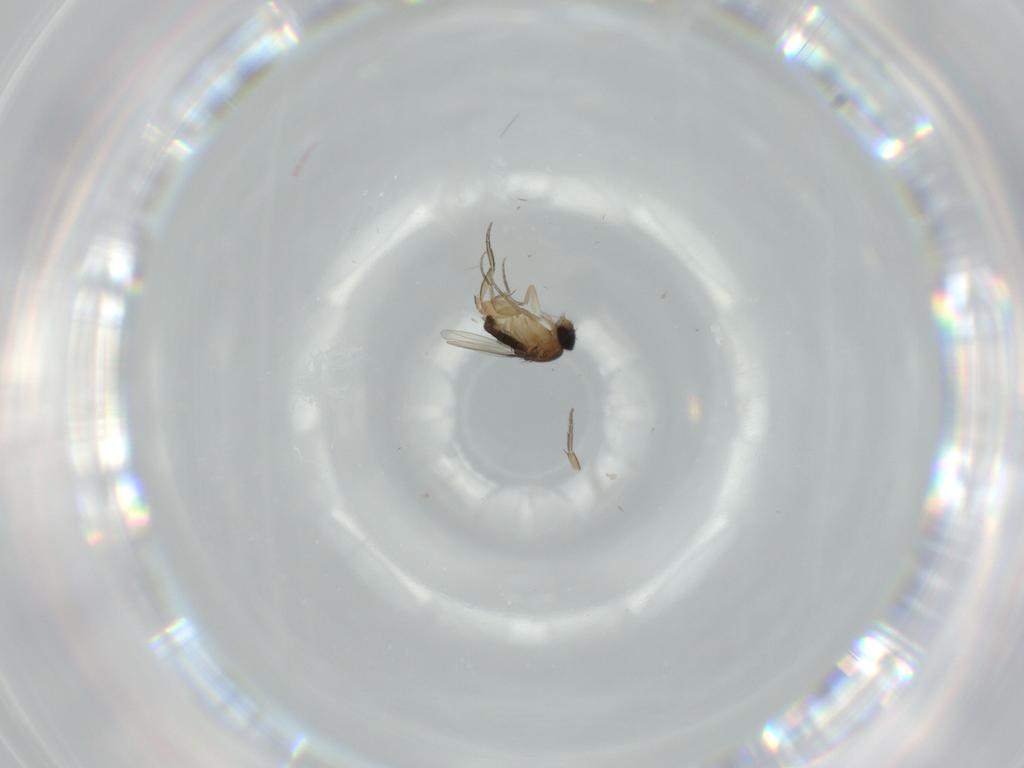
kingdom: Animalia
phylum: Arthropoda
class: Insecta
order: Diptera
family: Phoridae
